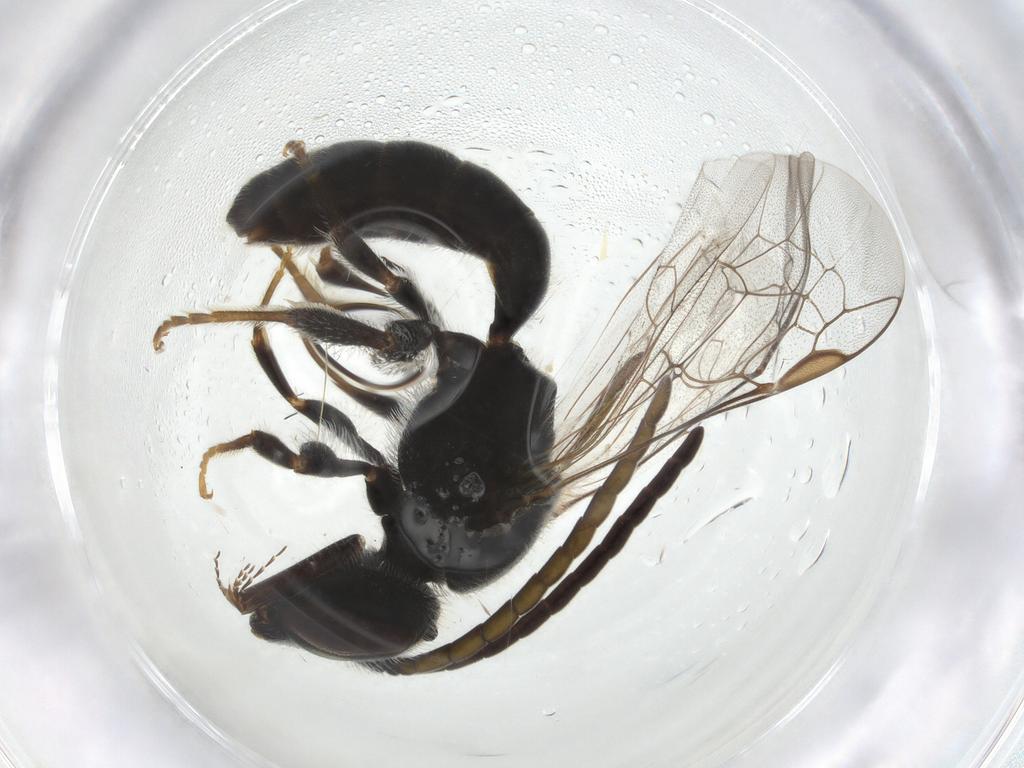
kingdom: Animalia
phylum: Arthropoda
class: Insecta
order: Hymenoptera
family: Halictidae
